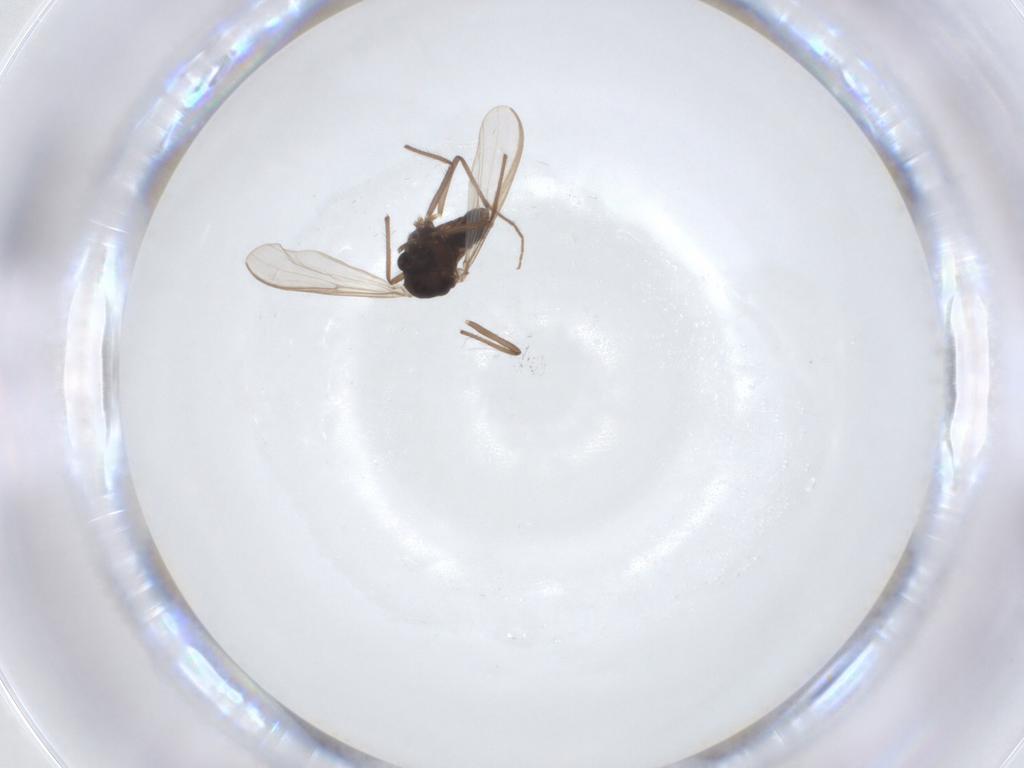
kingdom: Animalia
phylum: Arthropoda
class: Insecta
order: Diptera
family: Chironomidae
